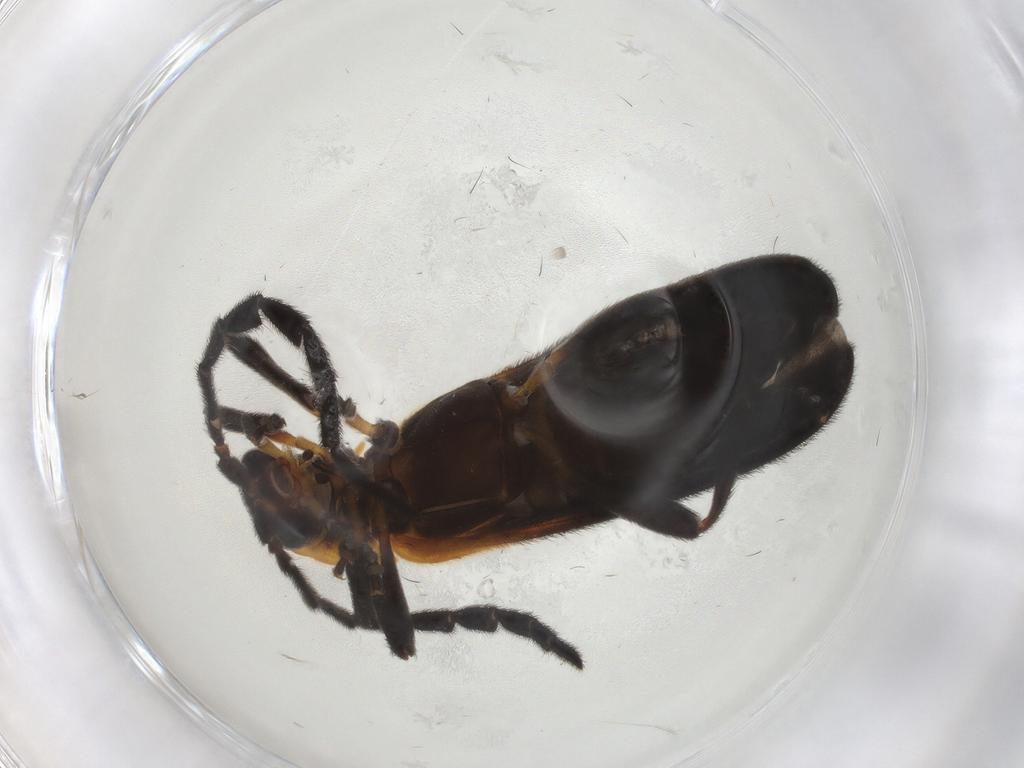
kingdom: Animalia
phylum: Arthropoda
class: Insecta
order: Coleoptera
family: Lycidae
